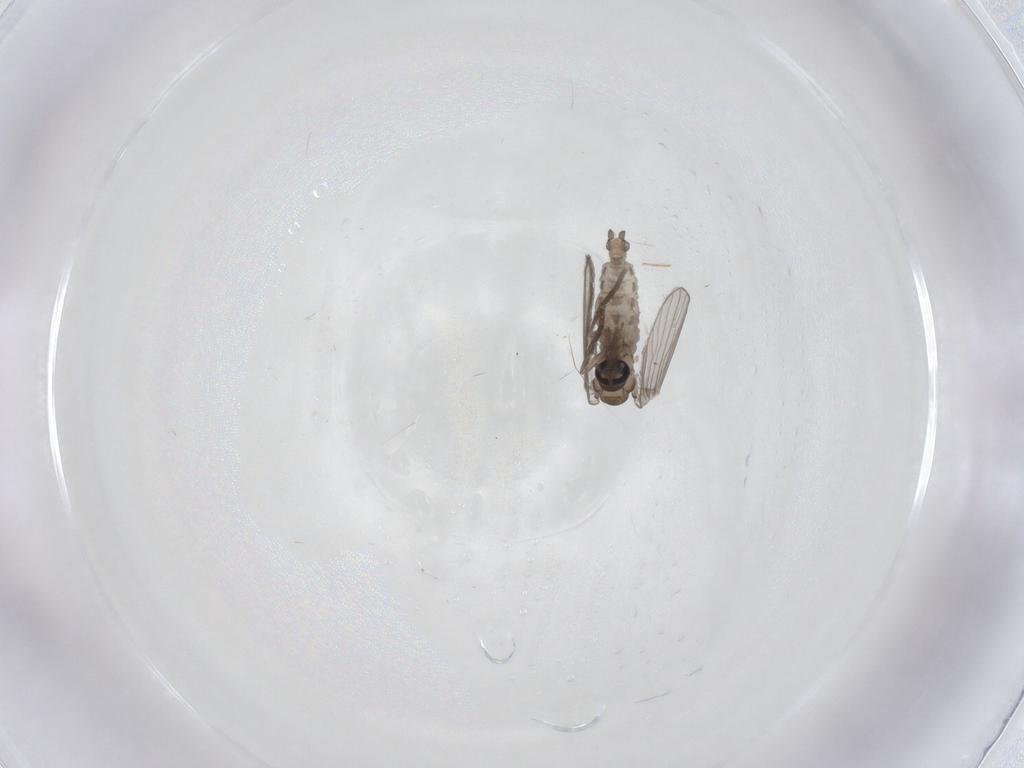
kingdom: Animalia
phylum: Arthropoda
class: Insecta
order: Diptera
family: Psychodidae
